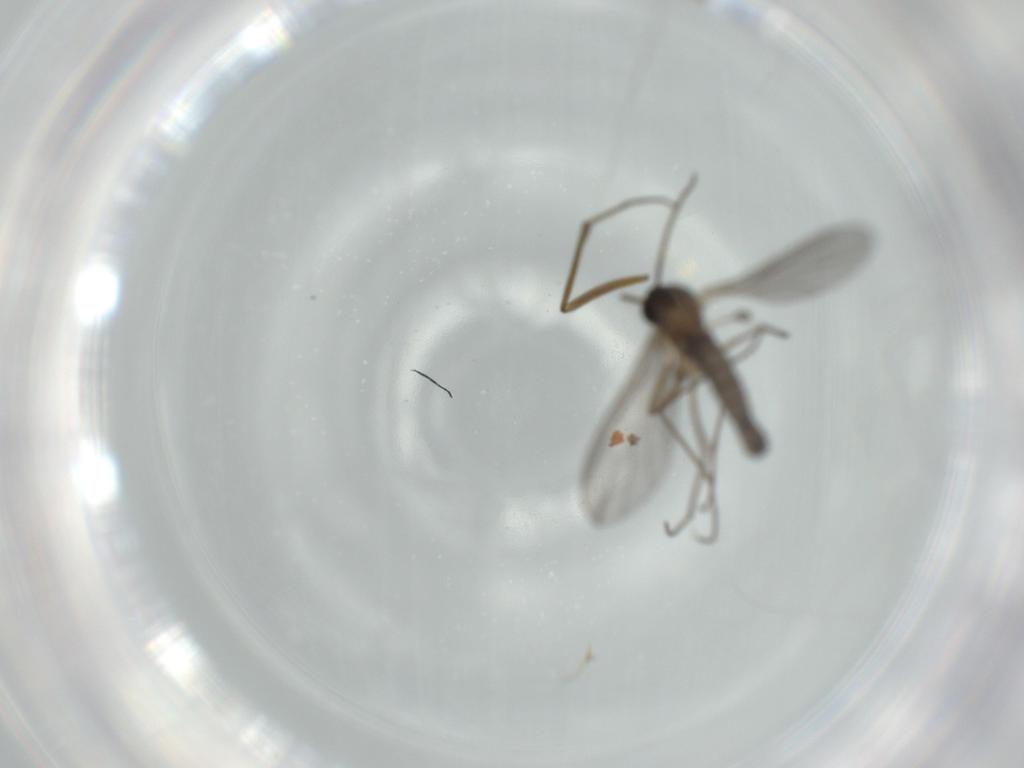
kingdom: Animalia
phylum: Arthropoda
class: Insecta
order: Diptera
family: Sciaridae
